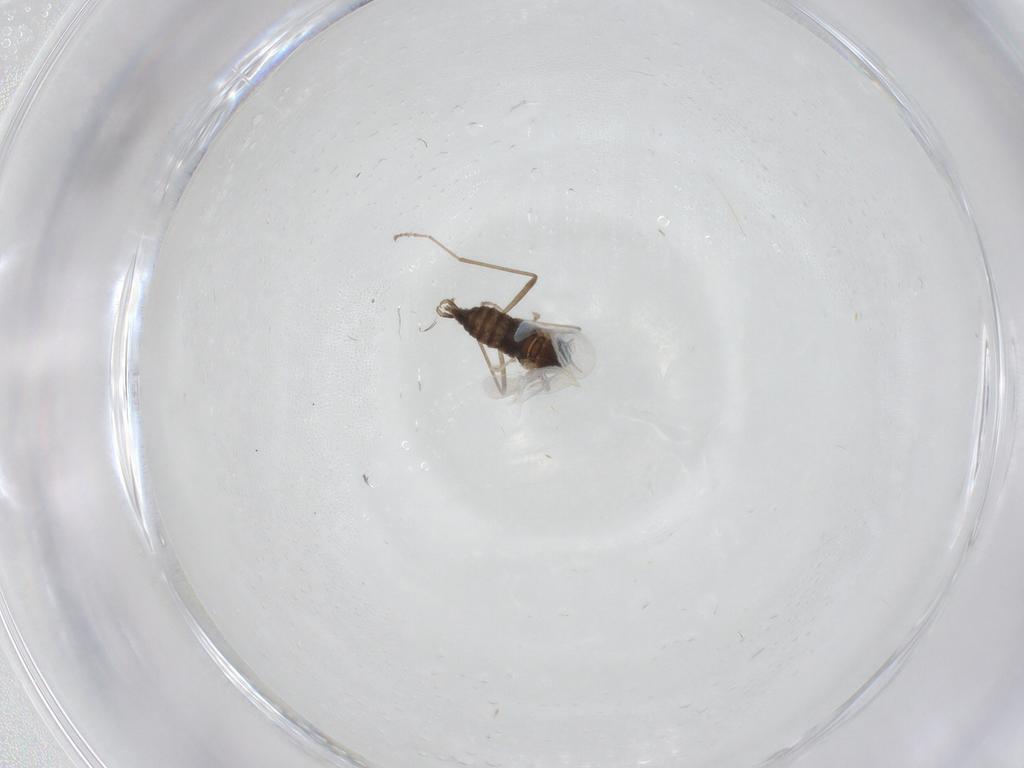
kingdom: Animalia
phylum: Arthropoda
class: Insecta
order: Diptera
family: Cecidomyiidae
